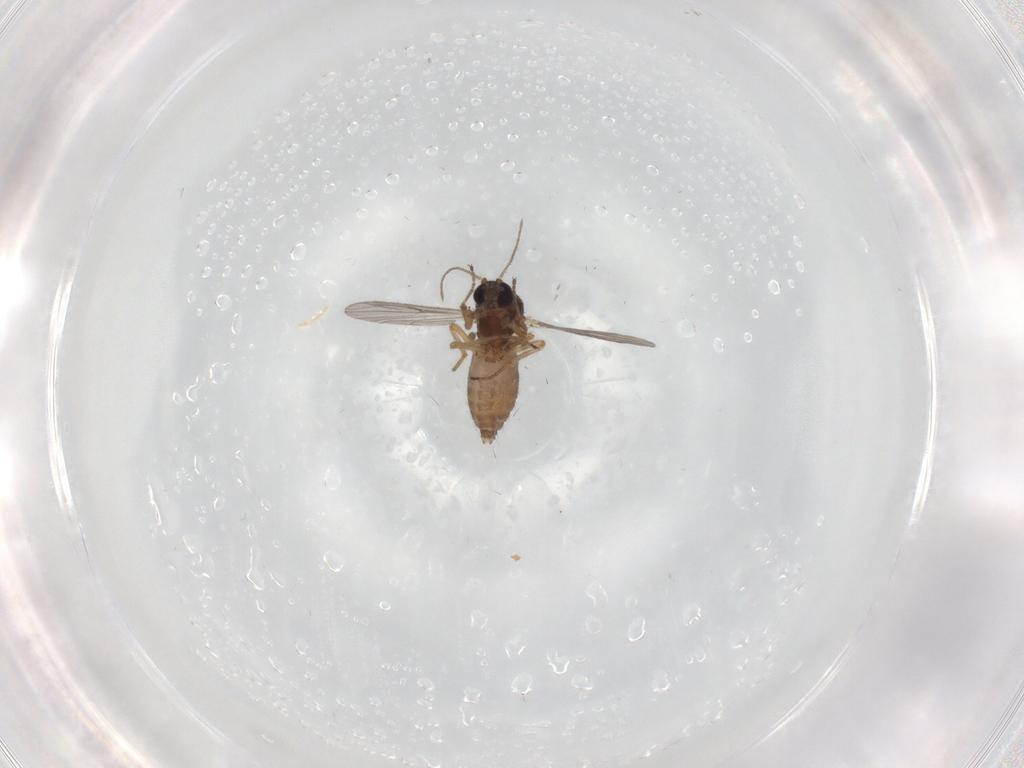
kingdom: Animalia
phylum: Arthropoda
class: Insecta
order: Diptera
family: Ceratopogonidae
